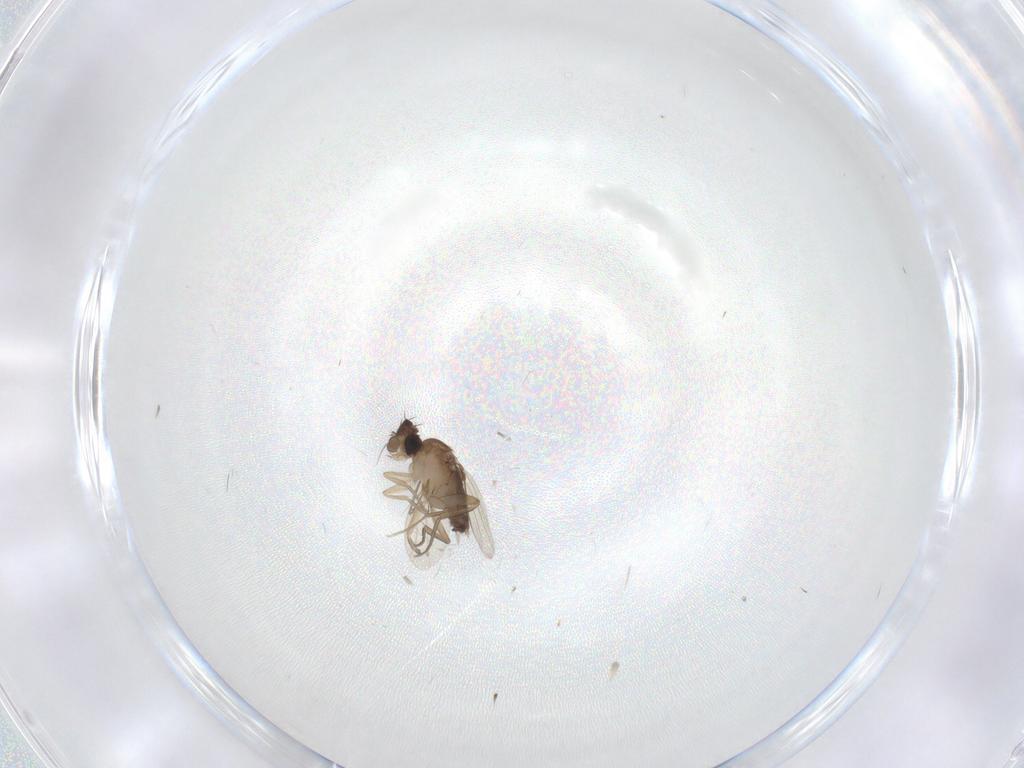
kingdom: Animalia
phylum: Arthropoda
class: Insecta
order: Diptera
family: Phoridae
